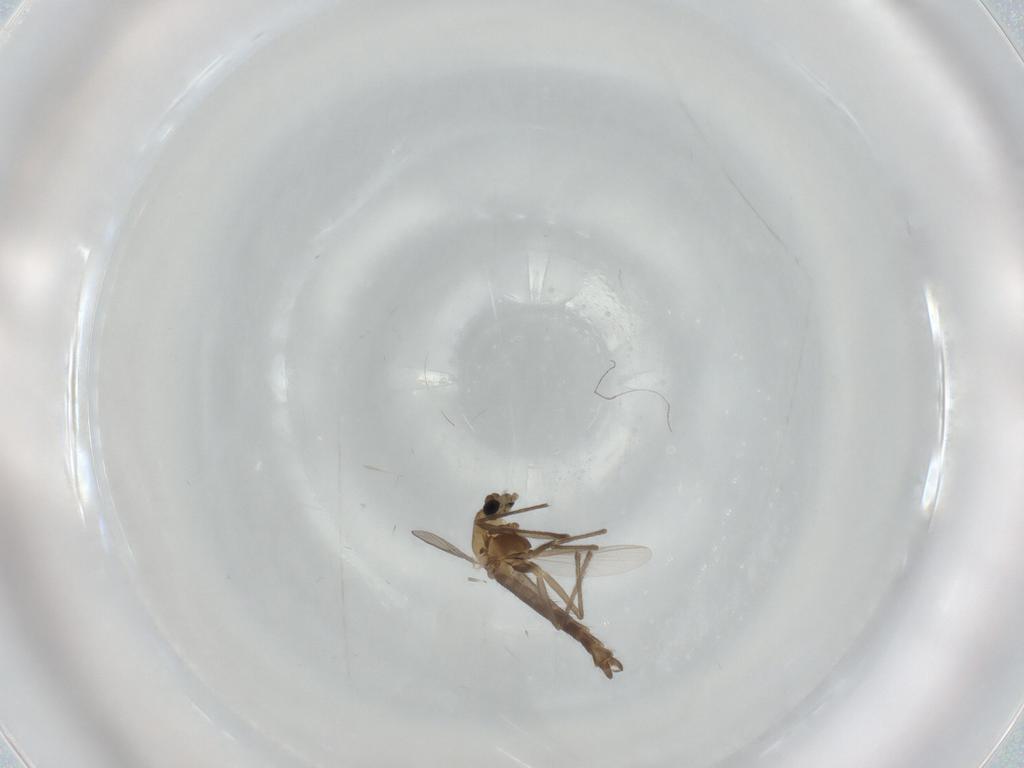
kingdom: Animalia
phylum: Arthropoda
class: Insecta
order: Diptera
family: Chironomidae
